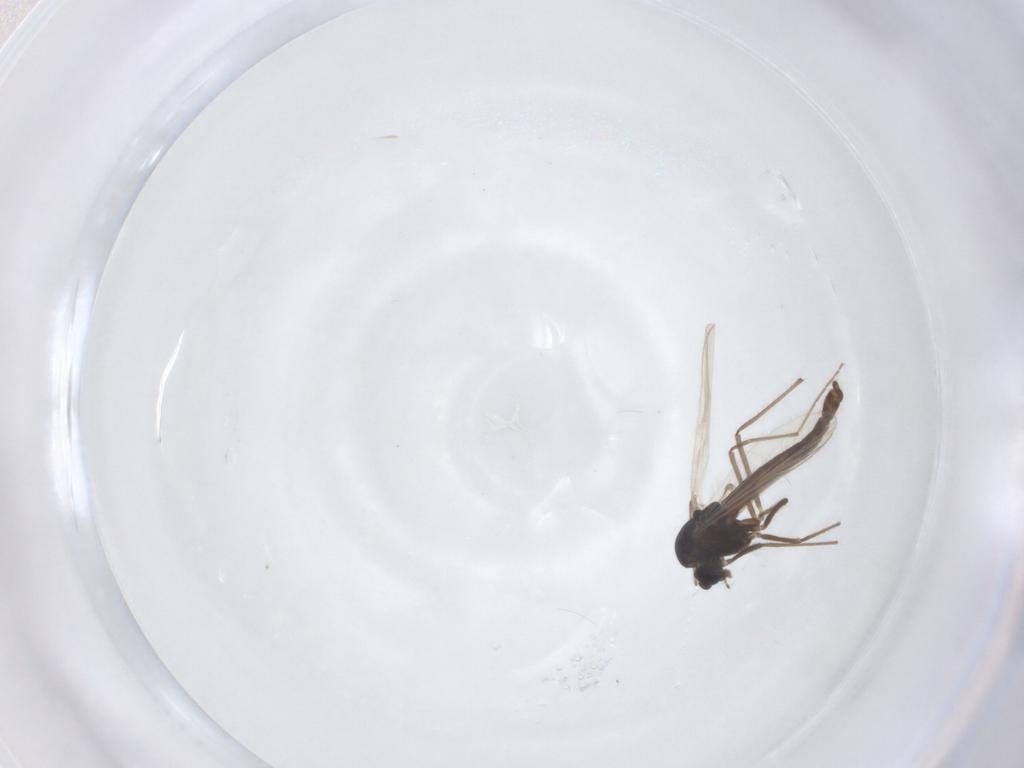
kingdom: Animalia
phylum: Arthropoda
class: Insecta
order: Diptera
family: Chironomidae
